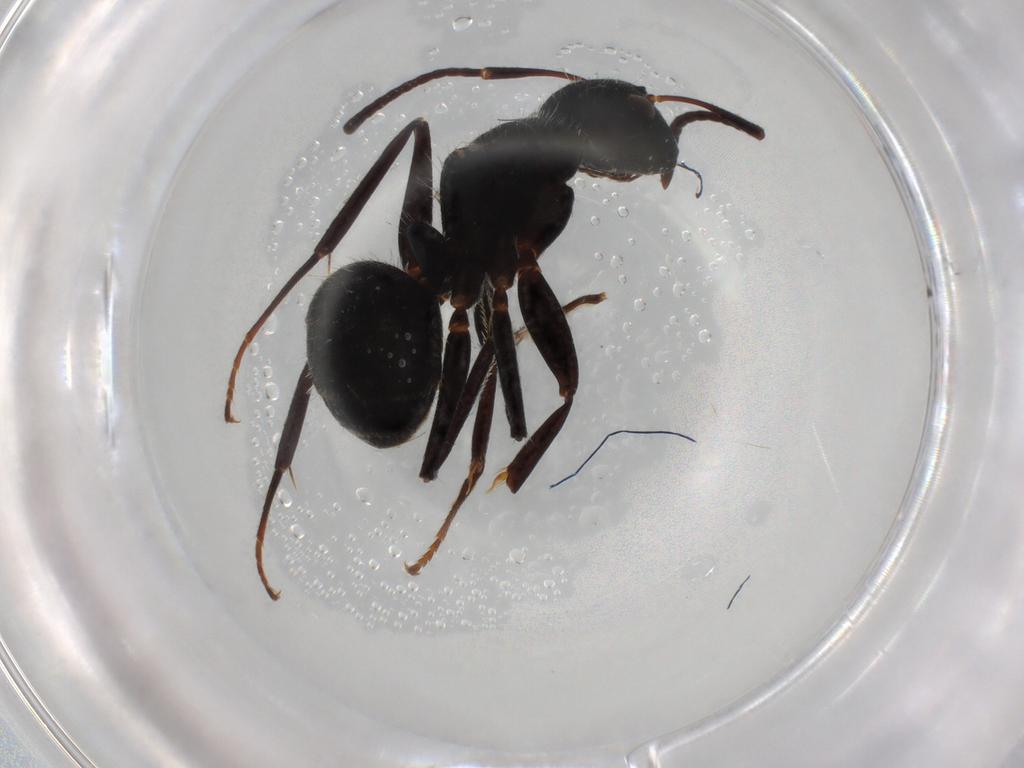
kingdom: Animalia
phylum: Arthropoda
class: Insecta
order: Hymenoptera
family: Formicidae
